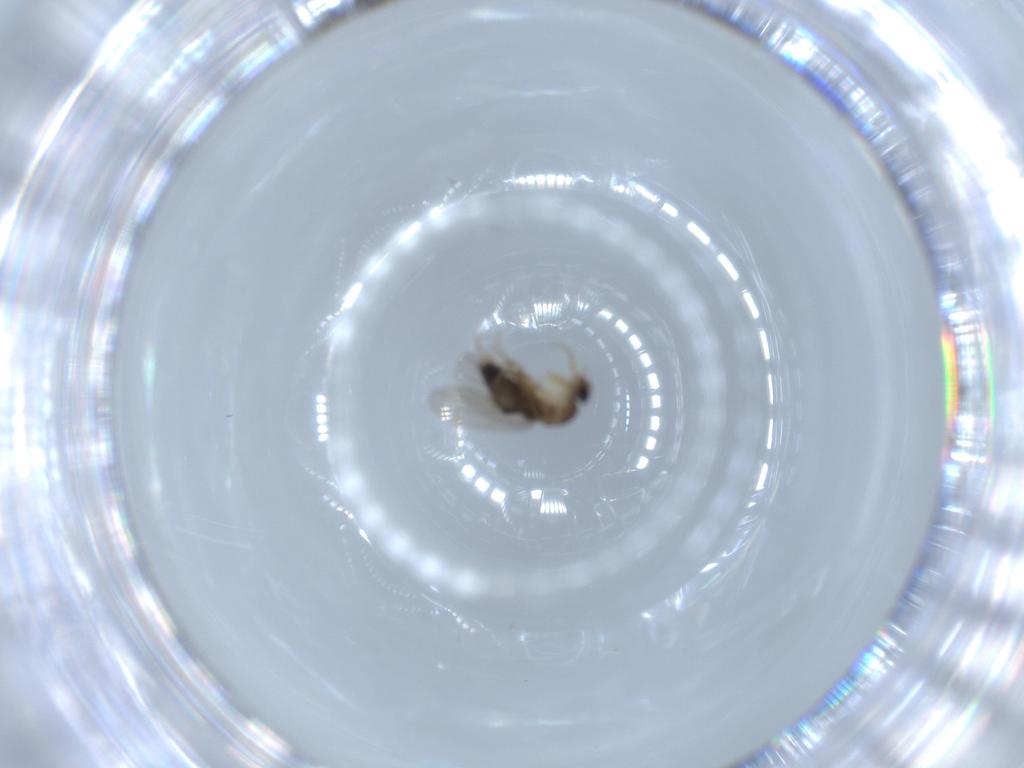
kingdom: Animalia
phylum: Arthropoda
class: Insecta
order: Diptera
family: Phoridae
